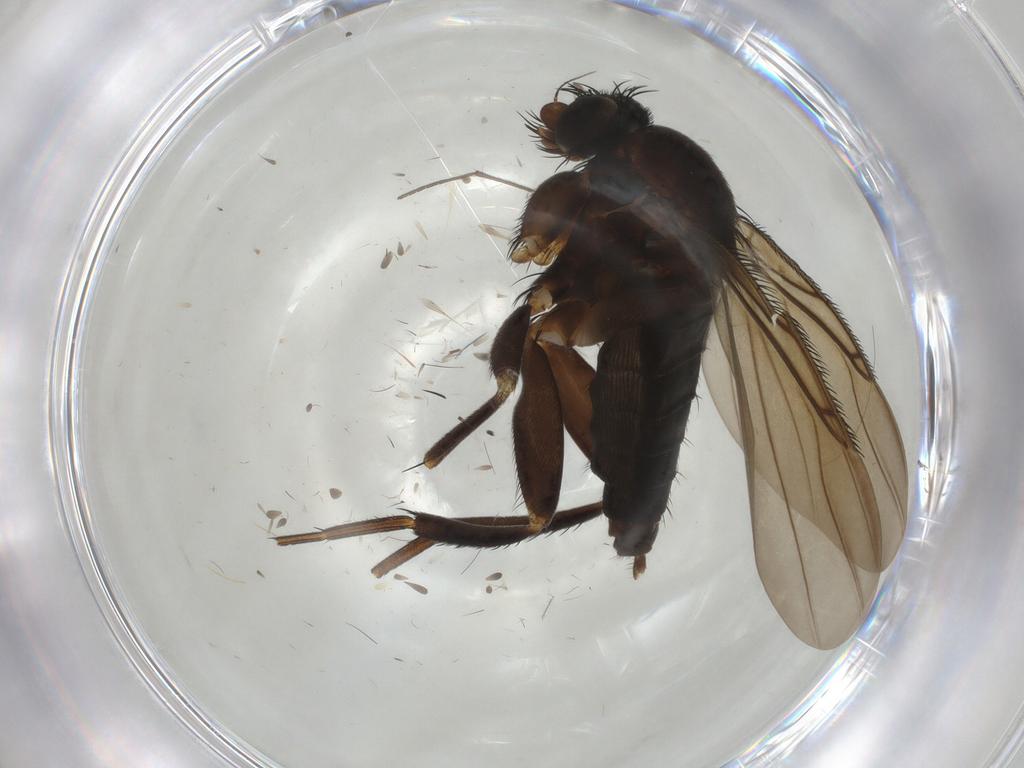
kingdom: Animalia
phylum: Arthropoda
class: Insecta
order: Diptera
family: Sciaridae
